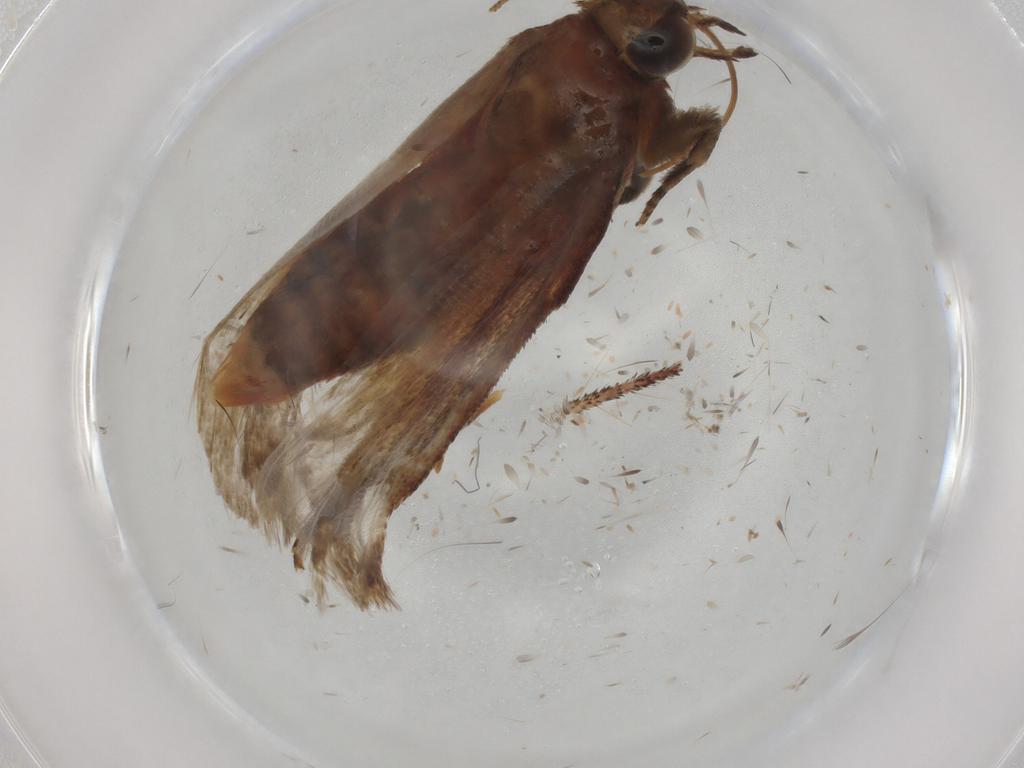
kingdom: Animalia
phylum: Arthropoda
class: Insecta
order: Lepidoptera
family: Pyralidae
